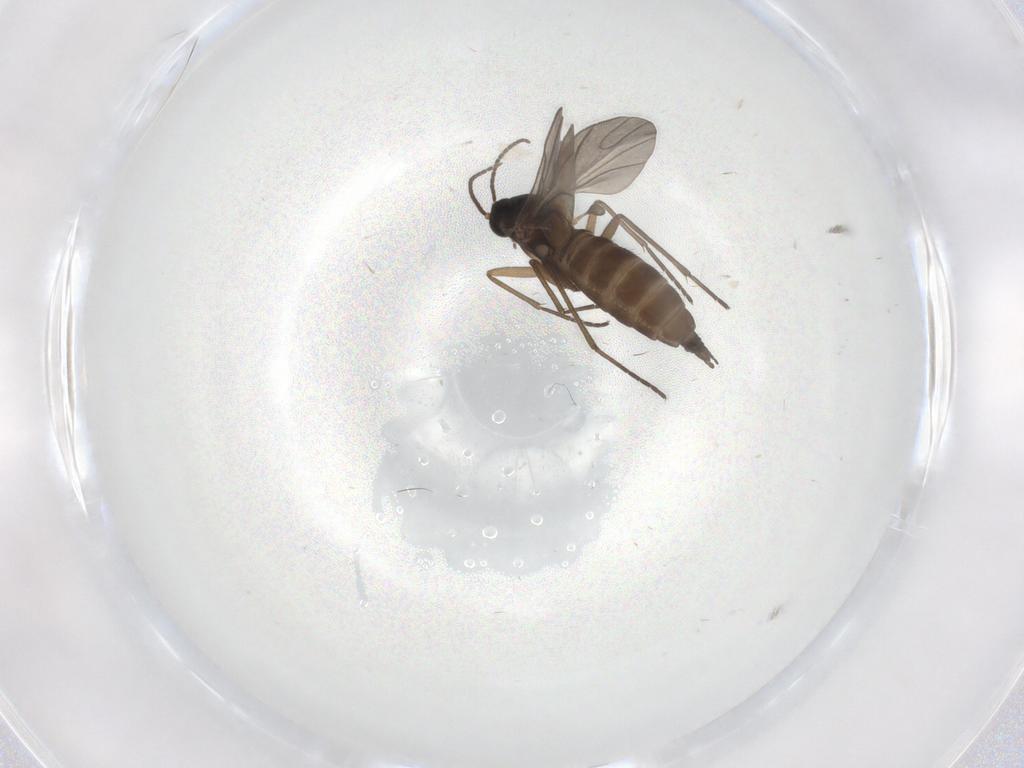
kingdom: Animalia
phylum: Arthropoda
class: Insecta
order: Diptera
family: Sciaridae
